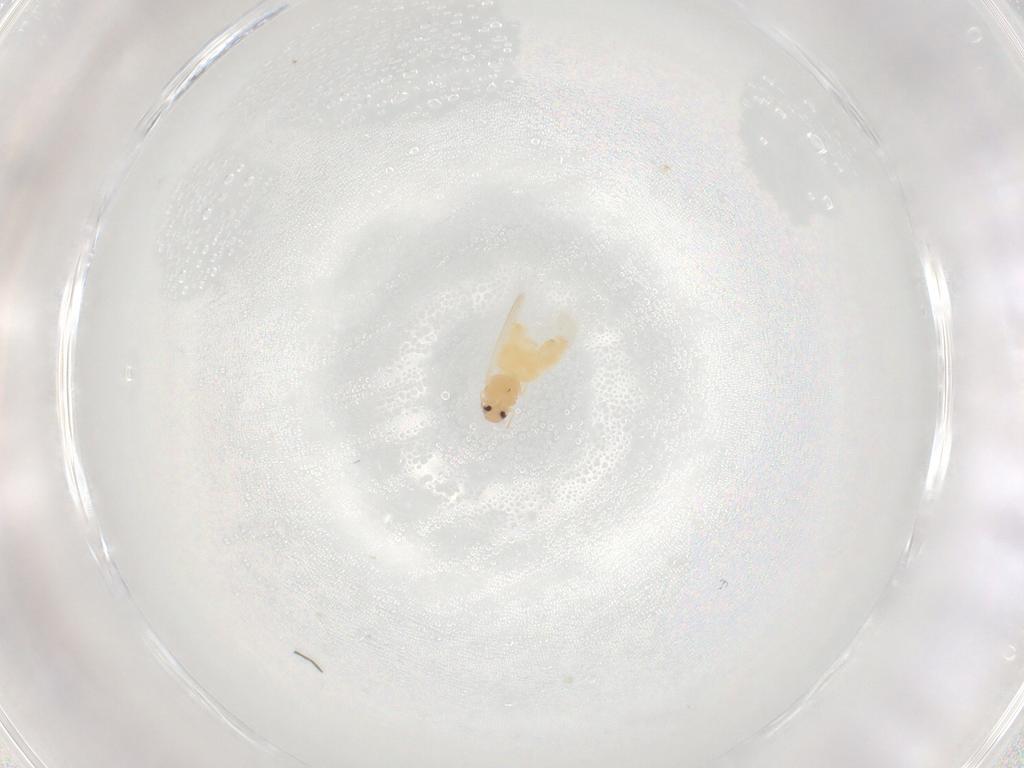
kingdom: Animalia
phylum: Arthropoda
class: Insecta
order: Hemiptera
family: Aleyrodidae
